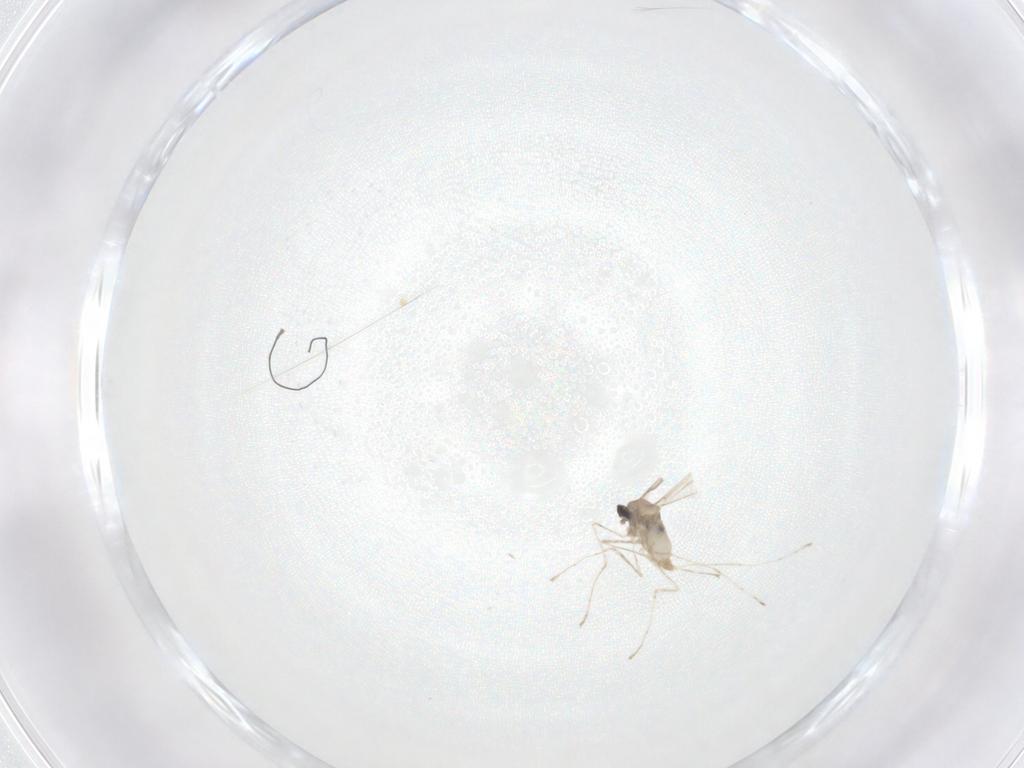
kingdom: Animalia
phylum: Arthropoda
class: Insecta
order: Diptera
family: Cecidomyiidae
